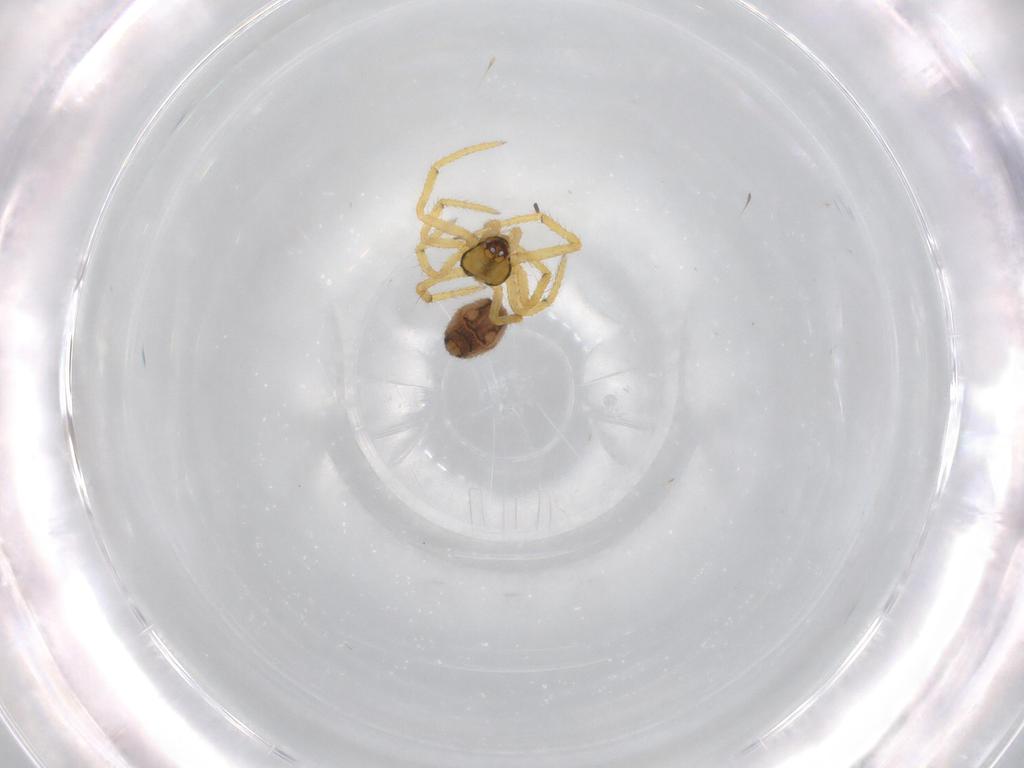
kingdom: Animalia
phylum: Arthropoda
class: Arachnida
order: Araneae
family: Theridiidae
